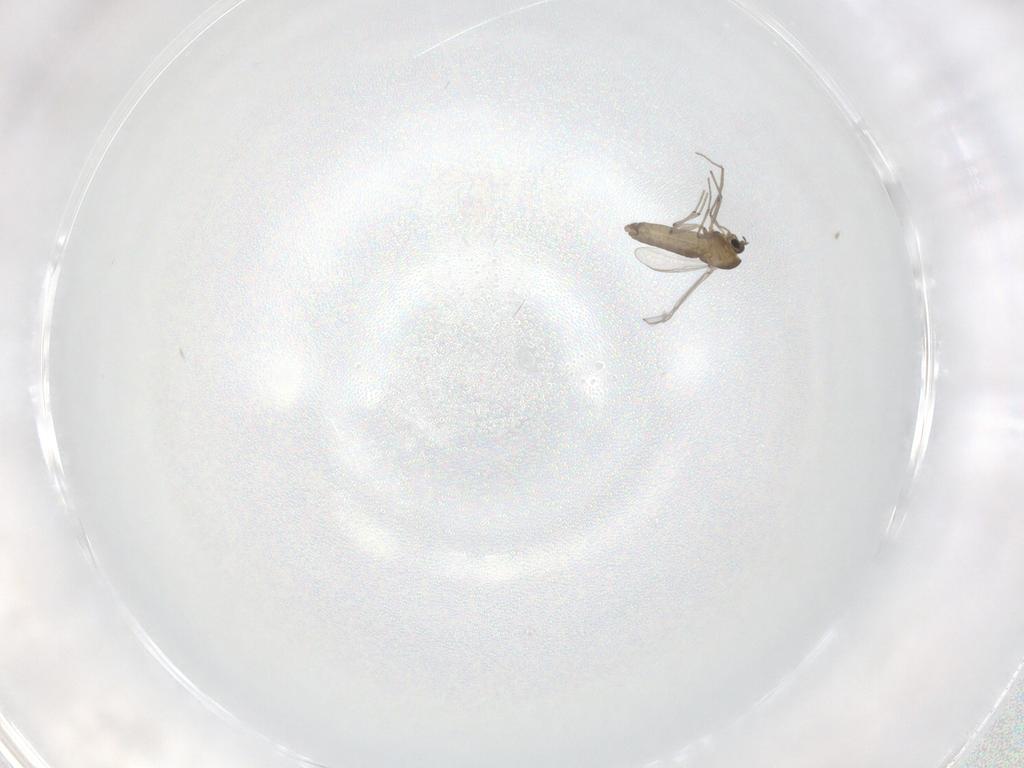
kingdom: Animalia
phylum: Arthropoda
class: Insecta
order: Diptera
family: Chironomidae
